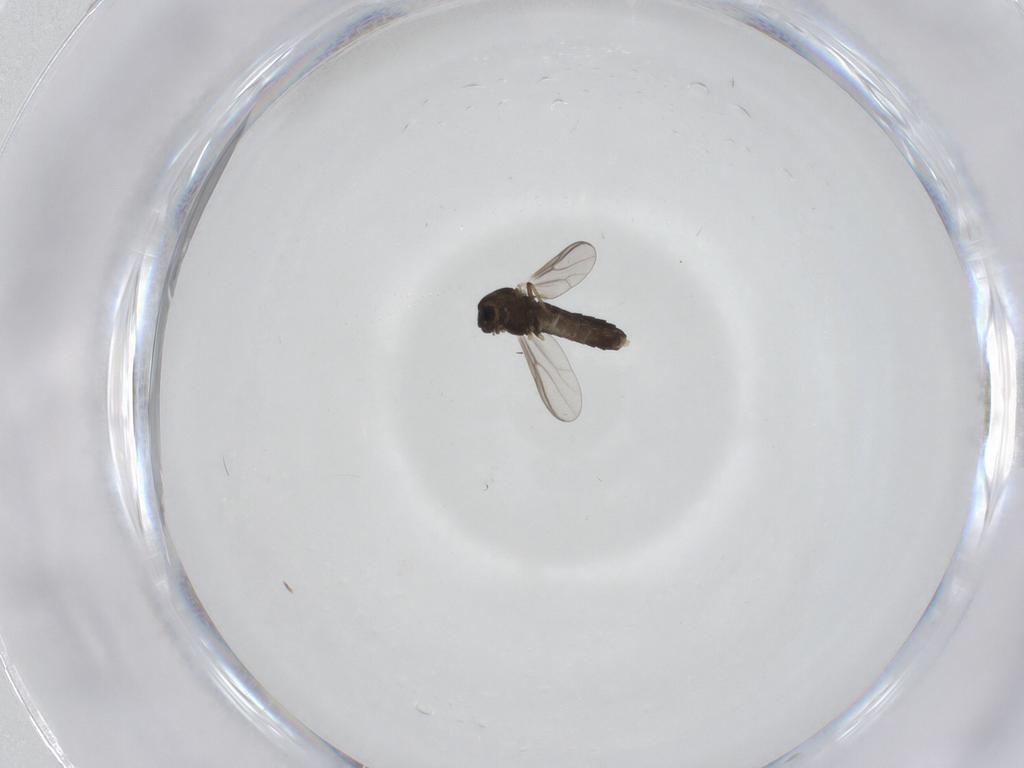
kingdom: Animalia
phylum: Arthropoda
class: Insecta
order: Diptera
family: Chironomidae
